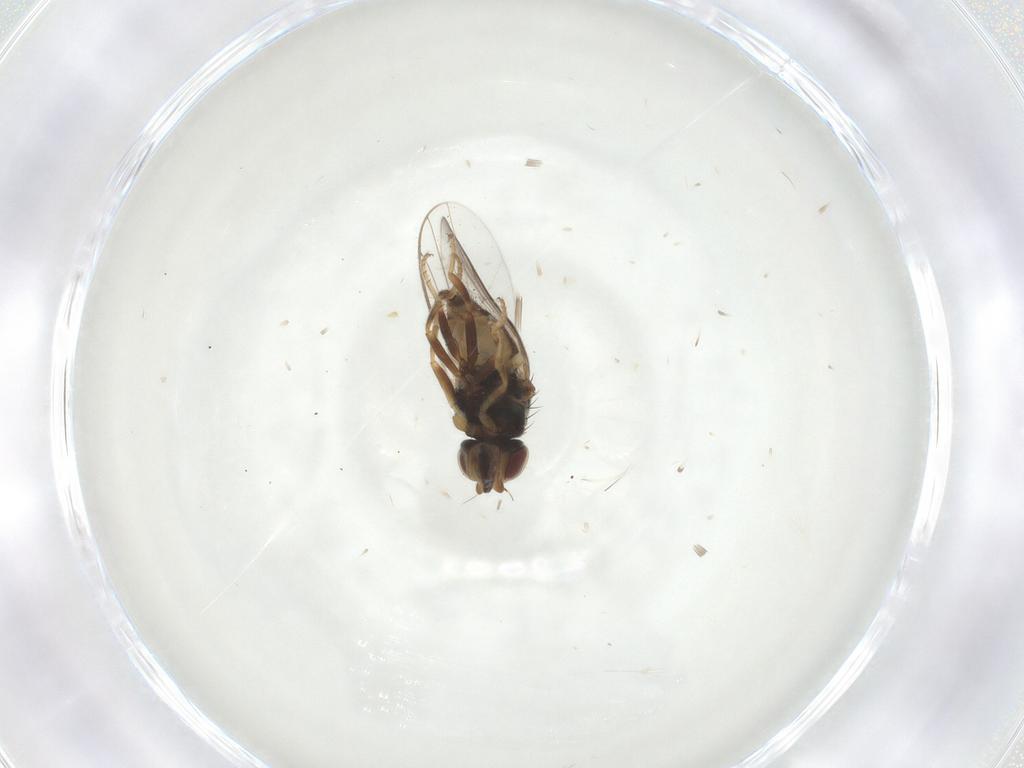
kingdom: Animalia
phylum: Arthropoda
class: Insecta
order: Diptera
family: Chloropidae
